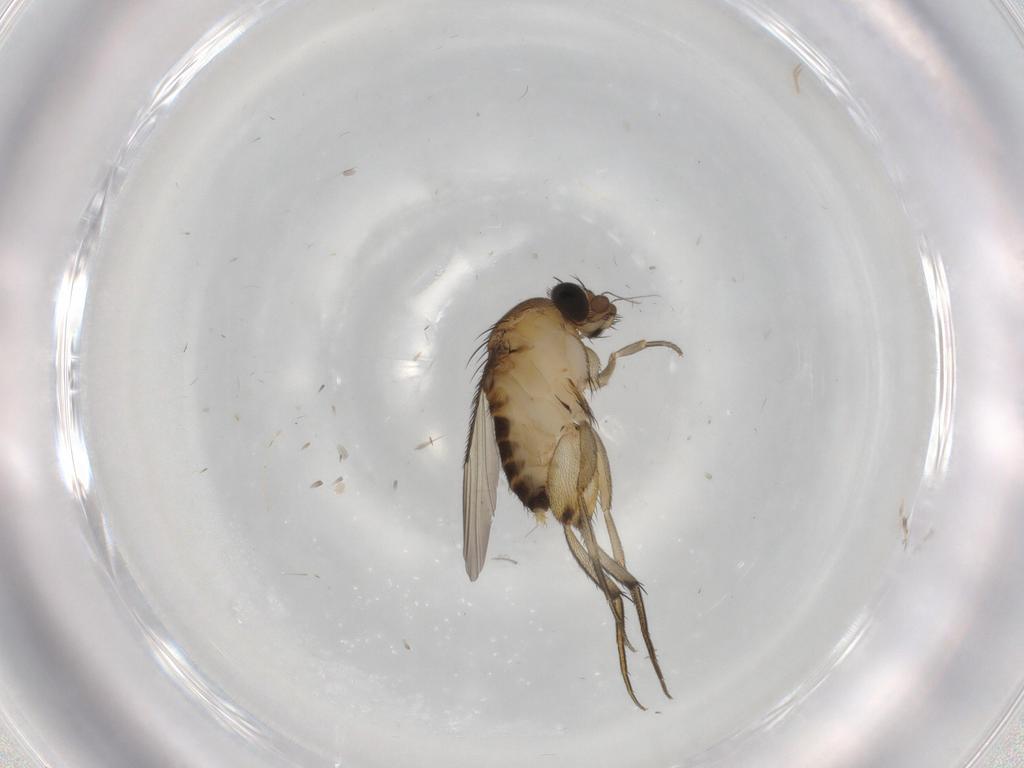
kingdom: Animalia
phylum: Arthropoda
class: Insecta
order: Diptera
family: Phoridae
